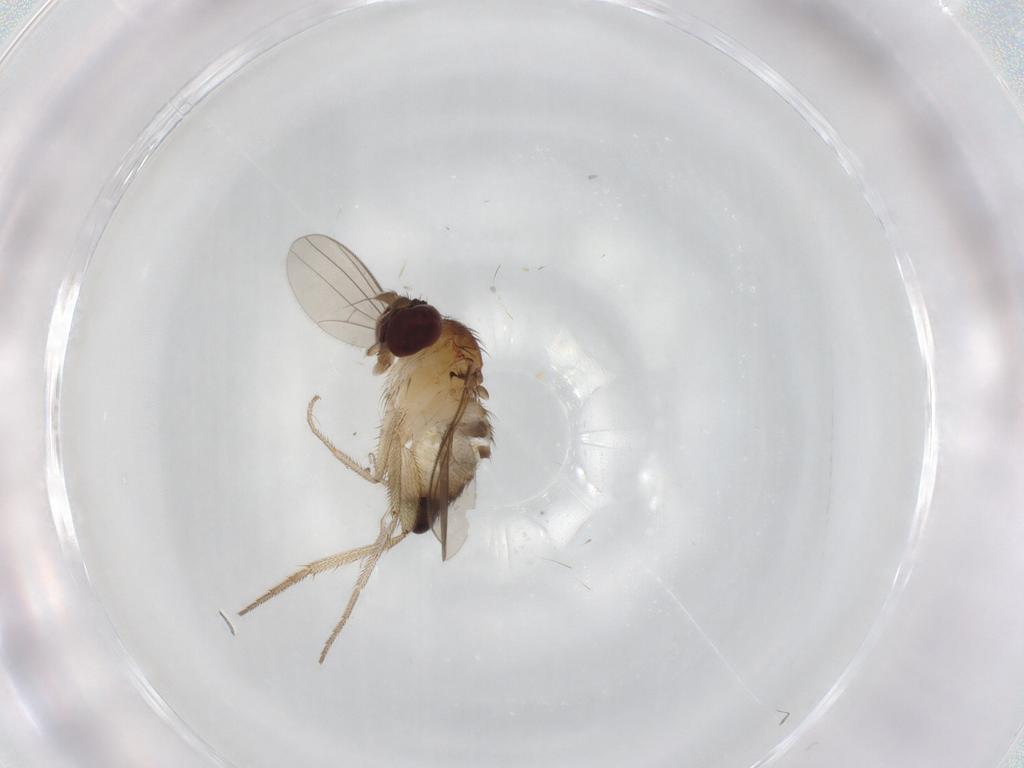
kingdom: Animalia
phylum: Arthropoda
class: Insecta
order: Diptera
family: Dolichopodidae
